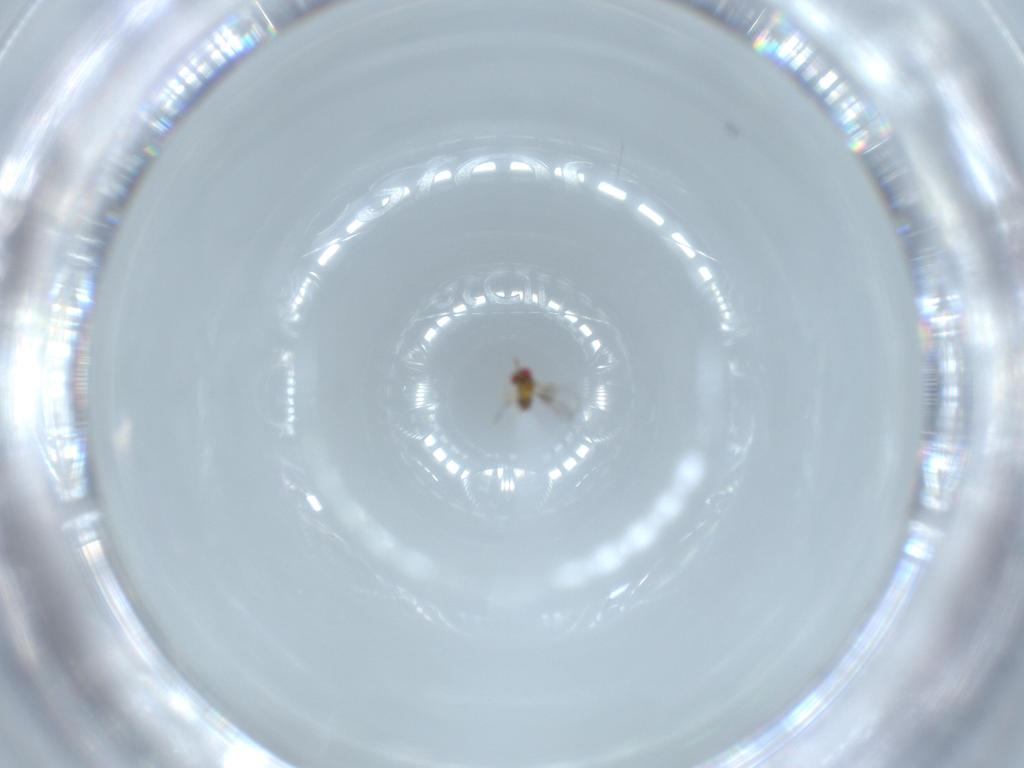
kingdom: Animalia
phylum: Arthropoda
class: Insecta
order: Hymenoptera
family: Trichogrammatidae
